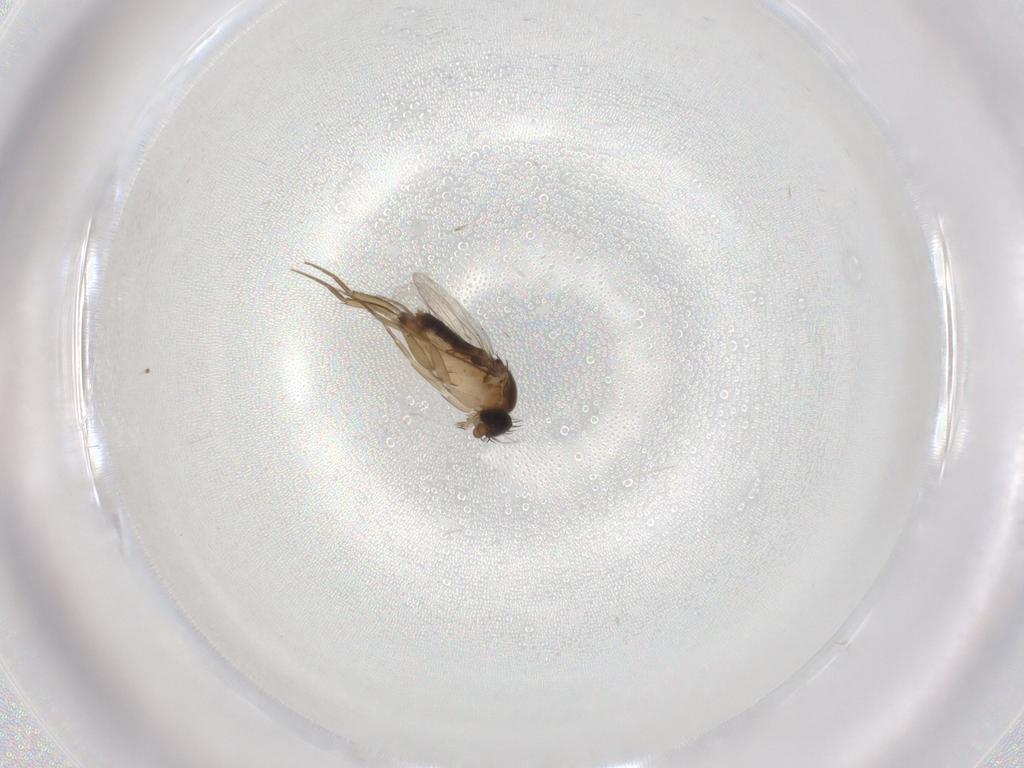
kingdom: Animalia
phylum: Arthropoda
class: Insecta
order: Diptera
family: Phoridae
